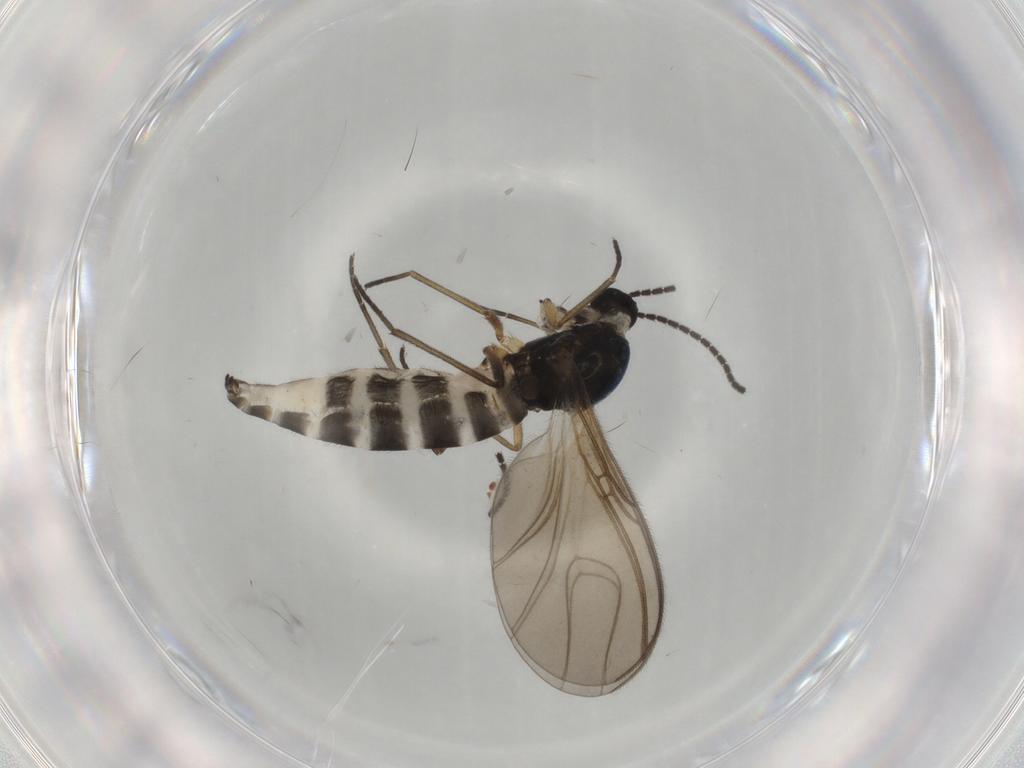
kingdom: Animalia
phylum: Arthropoda
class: Insecta
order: Diptera
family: Sciaridae
